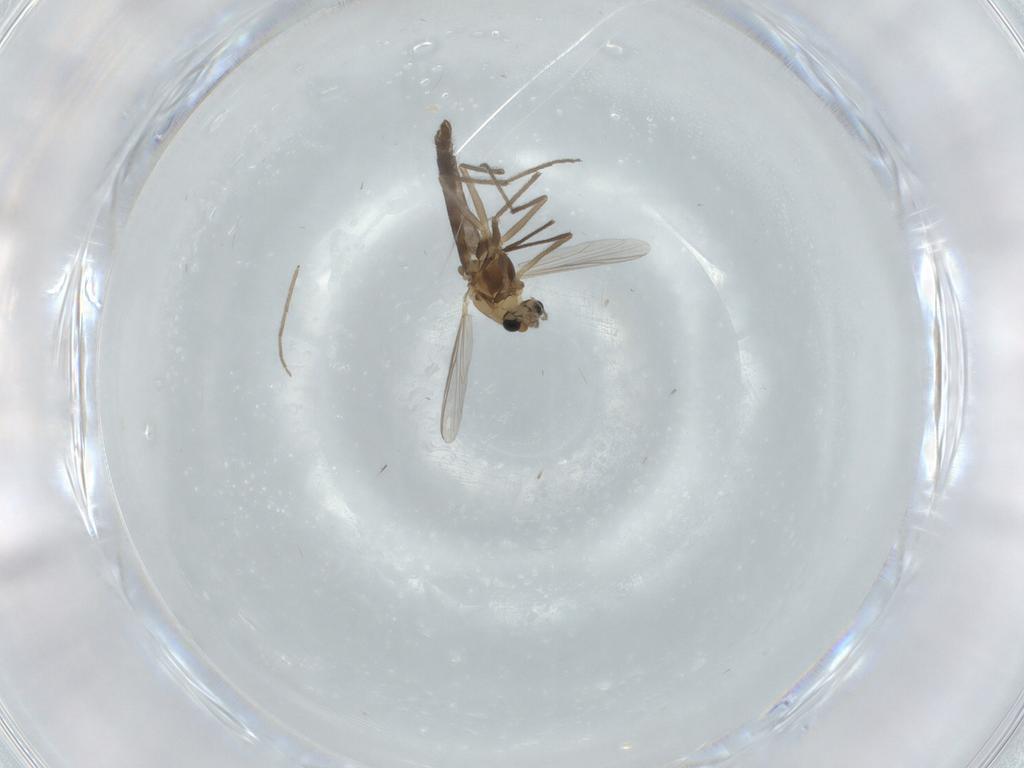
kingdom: Animalia
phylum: Arthropoda
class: Insecta
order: Diptera
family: Chironomidae
